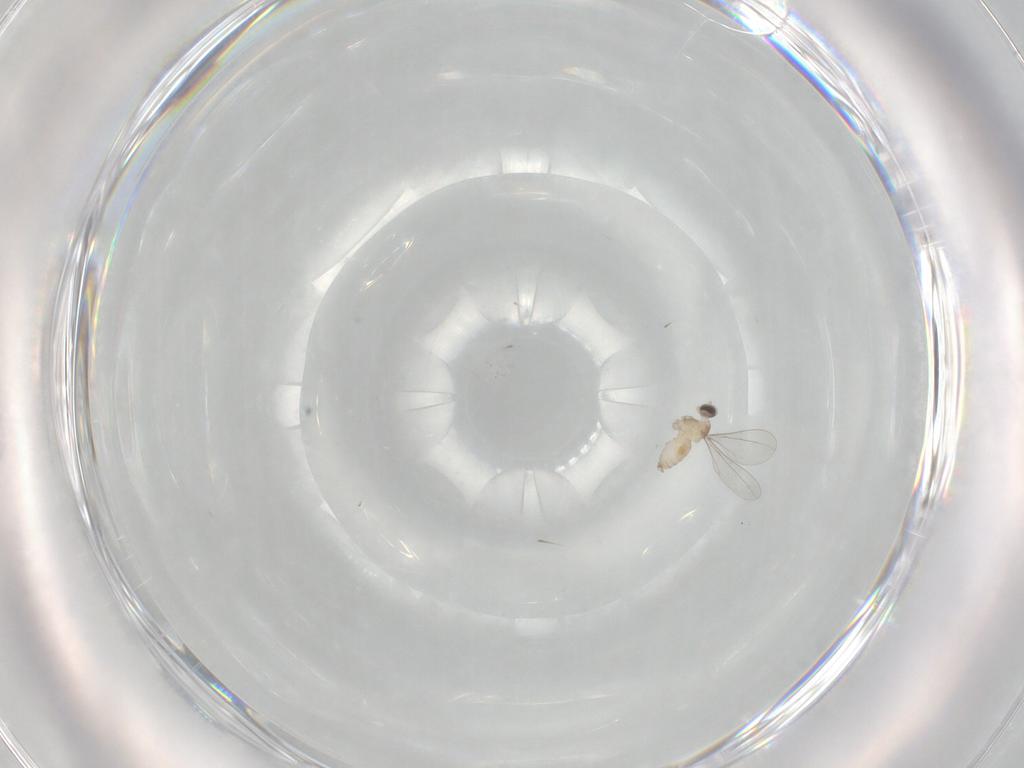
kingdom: Animalia
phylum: Arthropoda
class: Insecta
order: Diptera
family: Cecidomyiidae
